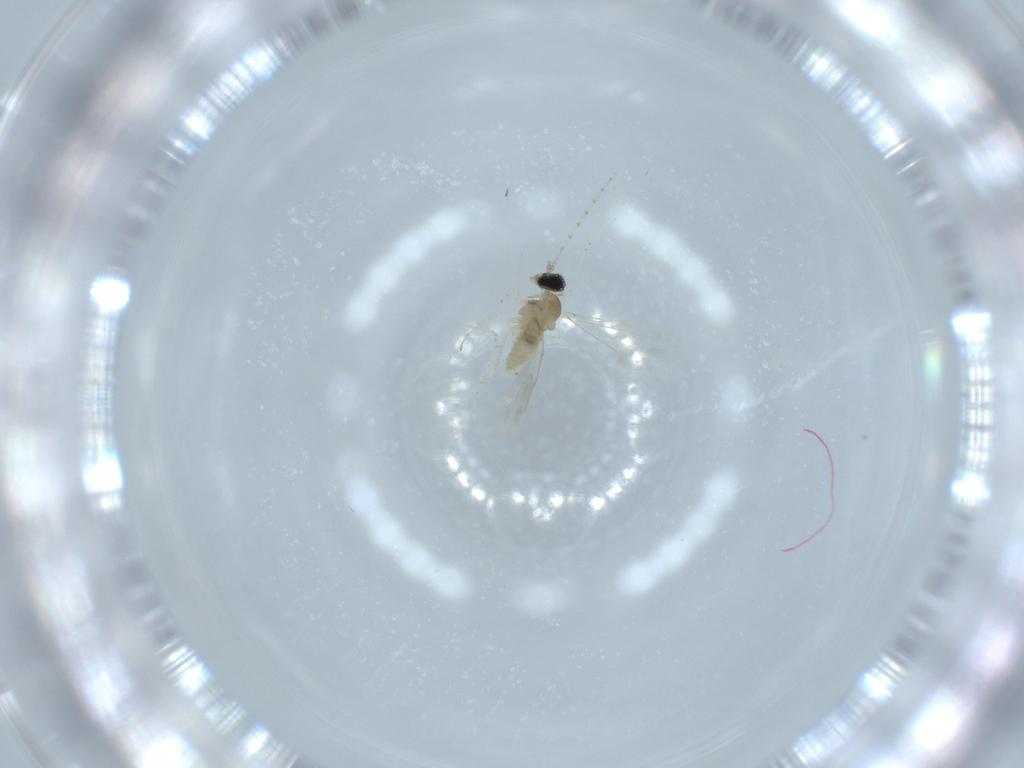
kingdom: Animalia
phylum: Arthropoda
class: Insecta
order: Diptera
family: Cecidomyiidae
